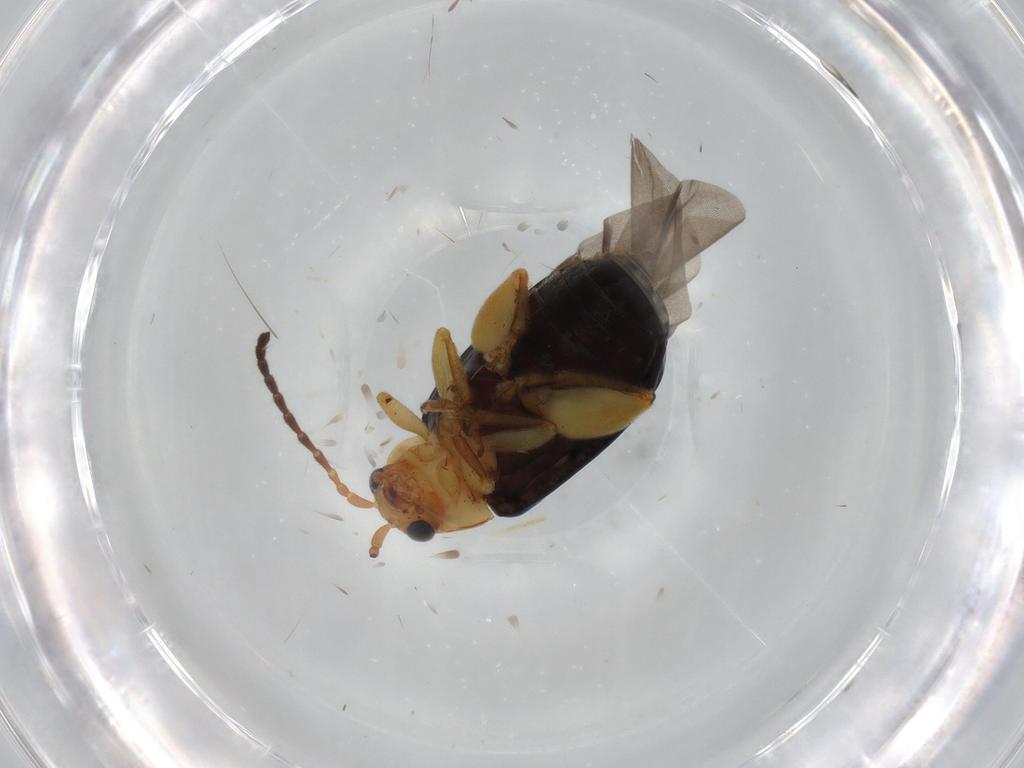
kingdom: Animalia
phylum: Arthropoda
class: Insecta
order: Coleoptera
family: Chrysomelidae
